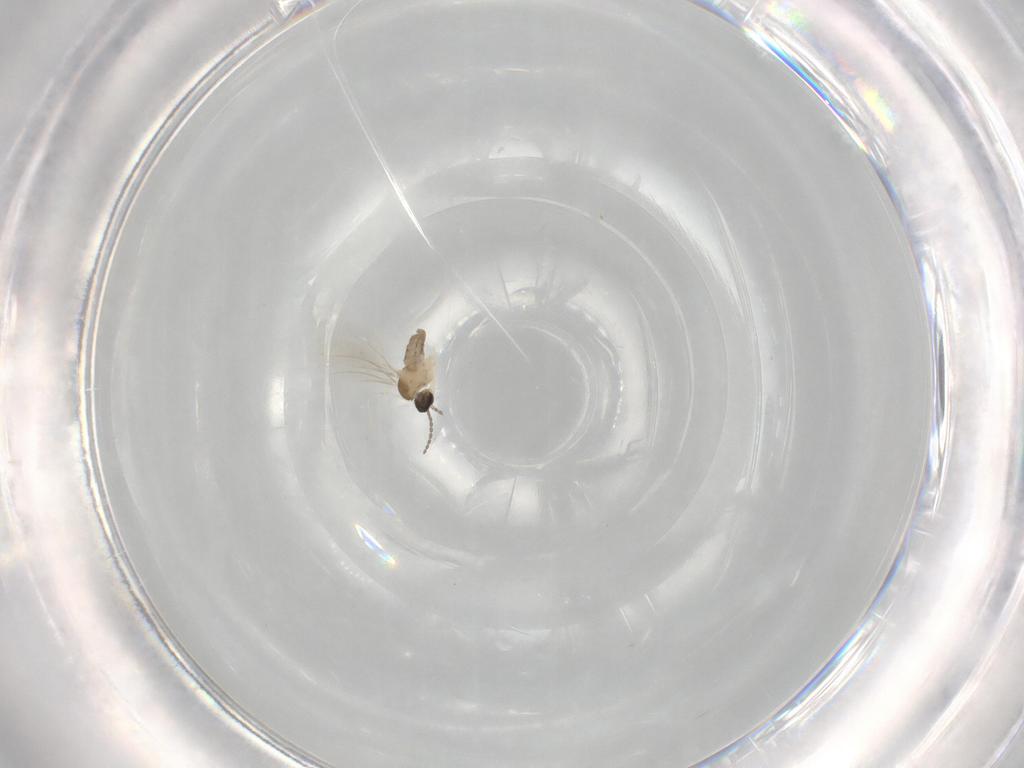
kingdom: Animalia
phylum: Arthropoda
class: Insecta
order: Diptera
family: Cecidomyiidae
